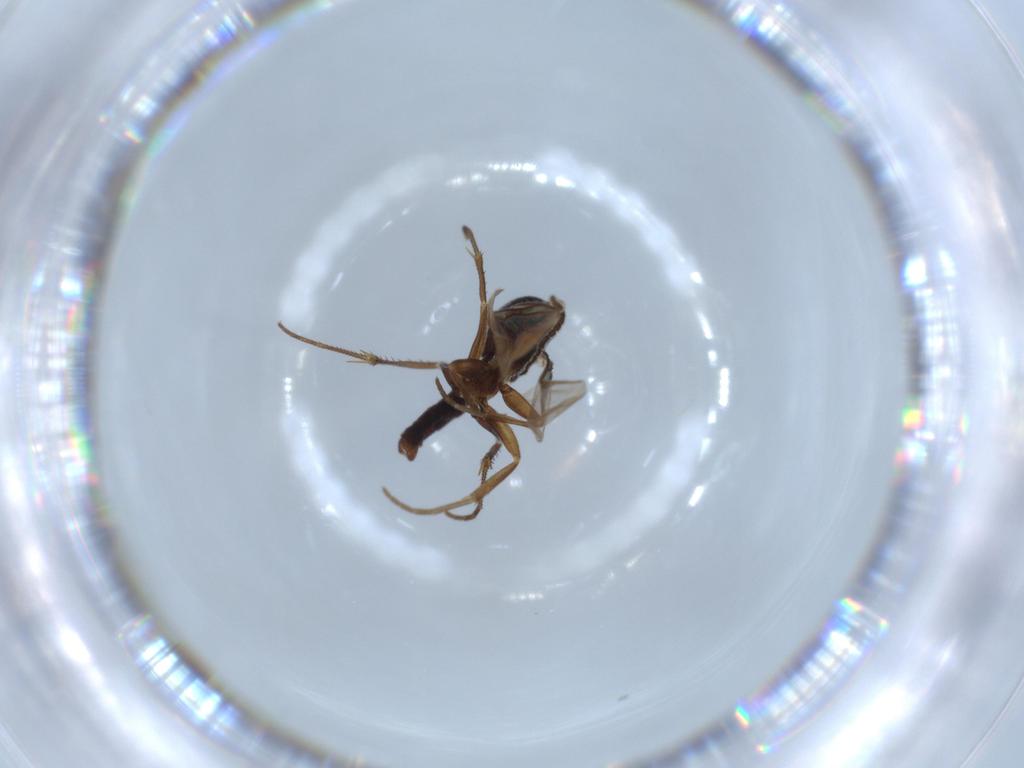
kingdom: Animalia
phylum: Arthropoda
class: Insecta
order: Diptera
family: Mycetophilidae
